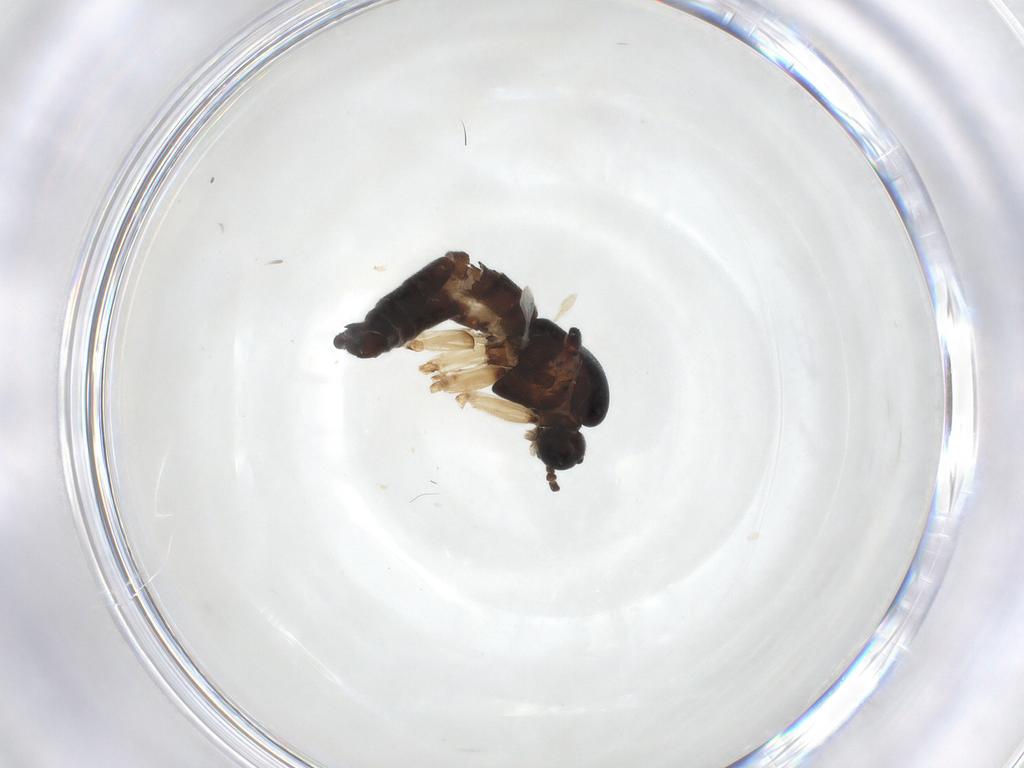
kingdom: Animalia
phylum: Arthropoda
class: Insecta
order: Diptera
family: Sciaridae
